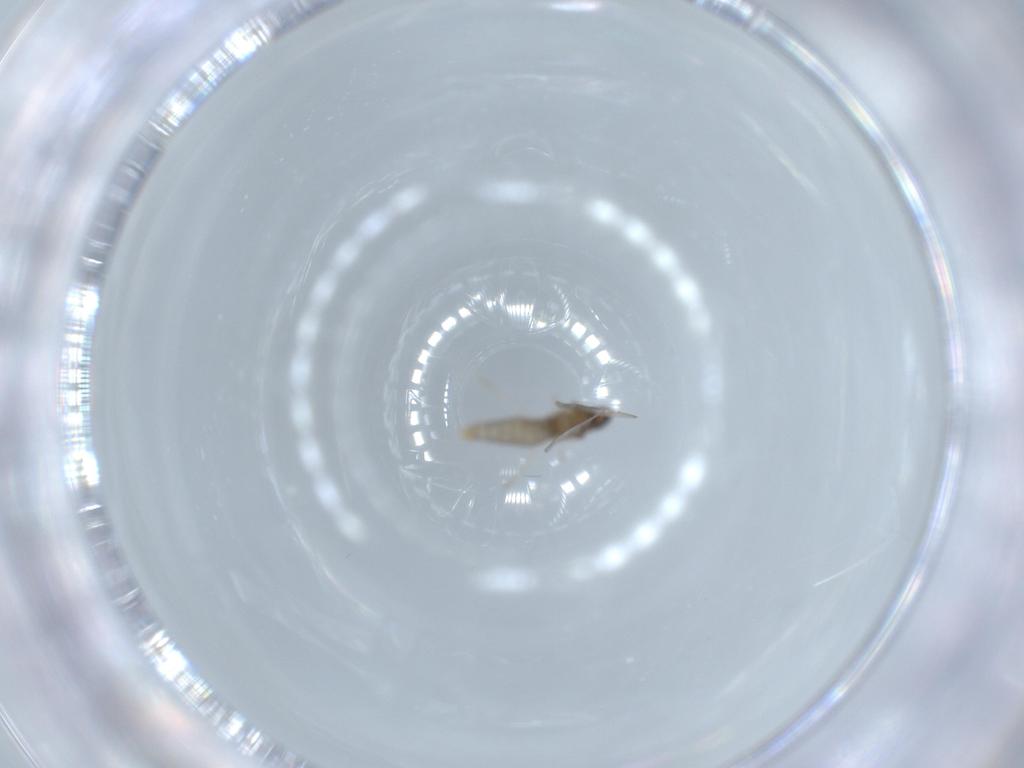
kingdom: Animalia
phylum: Arthropoda
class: Insecta
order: Diptera
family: Cecidomyiidae
